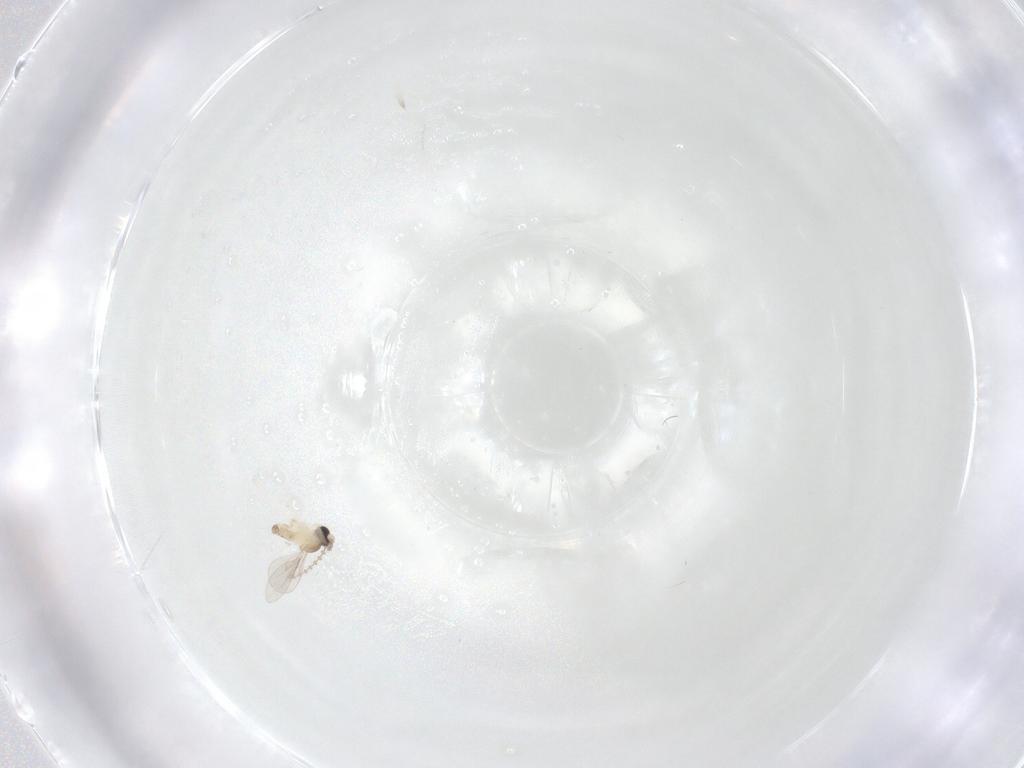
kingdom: Animalia
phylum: Arthropoda
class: Insecta
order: Diptera
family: Cecidomyiidae
